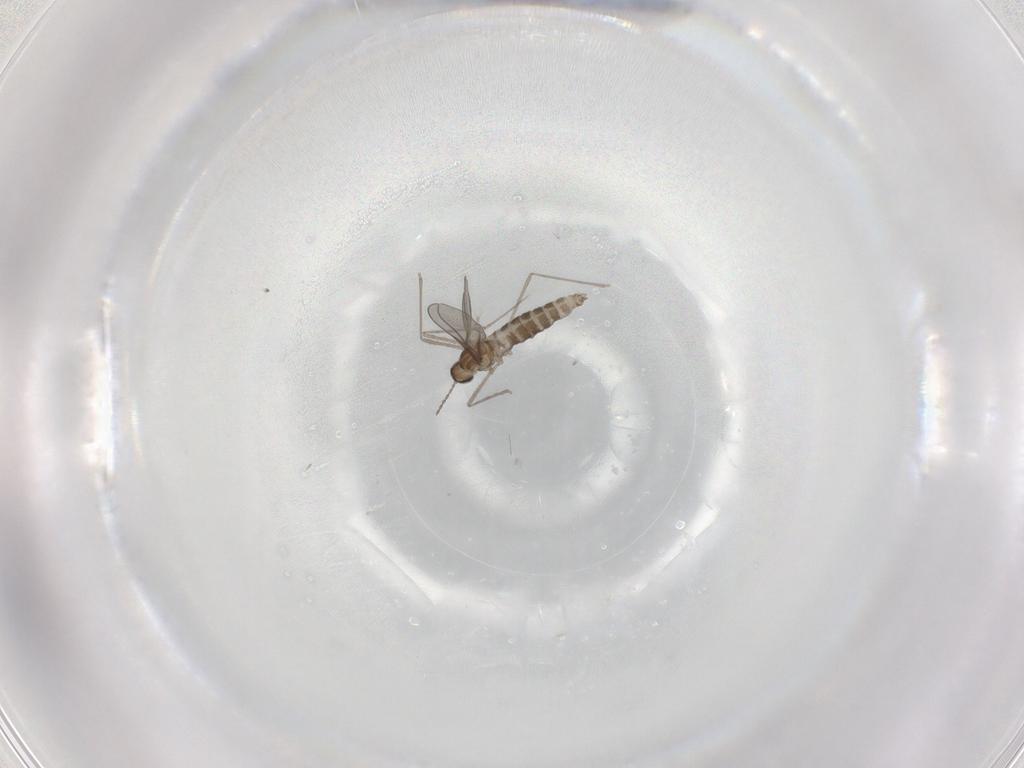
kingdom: Animalia
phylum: Arthropoda
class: Insecta
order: Diptera
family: Cecidomyiidae
